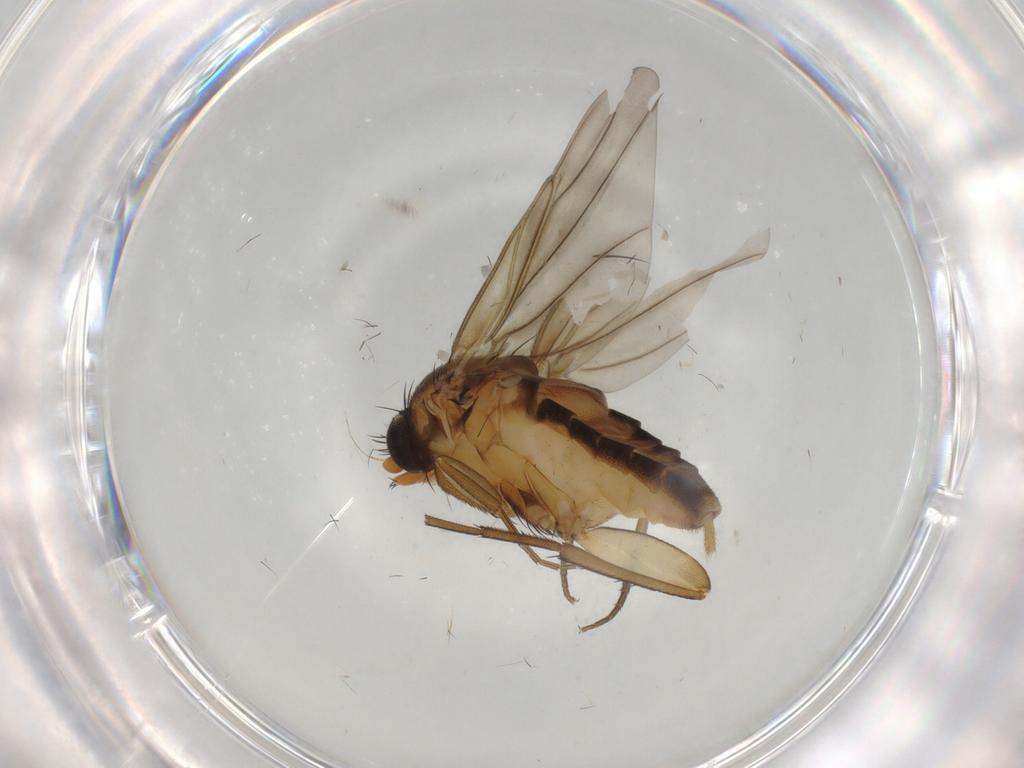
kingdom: Animalia
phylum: Arthropoda
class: Insecta
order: Diptera
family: Phoridae
